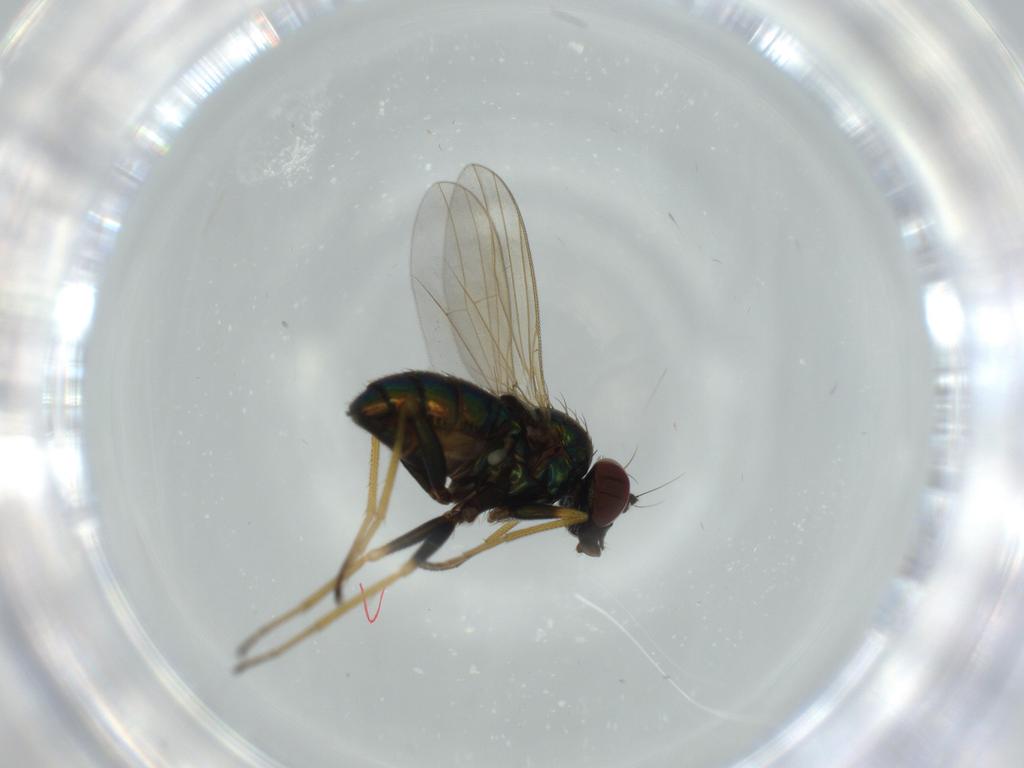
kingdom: Animalia
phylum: Arthropoda
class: Insecta
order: Diptera
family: Dolichopodidae
